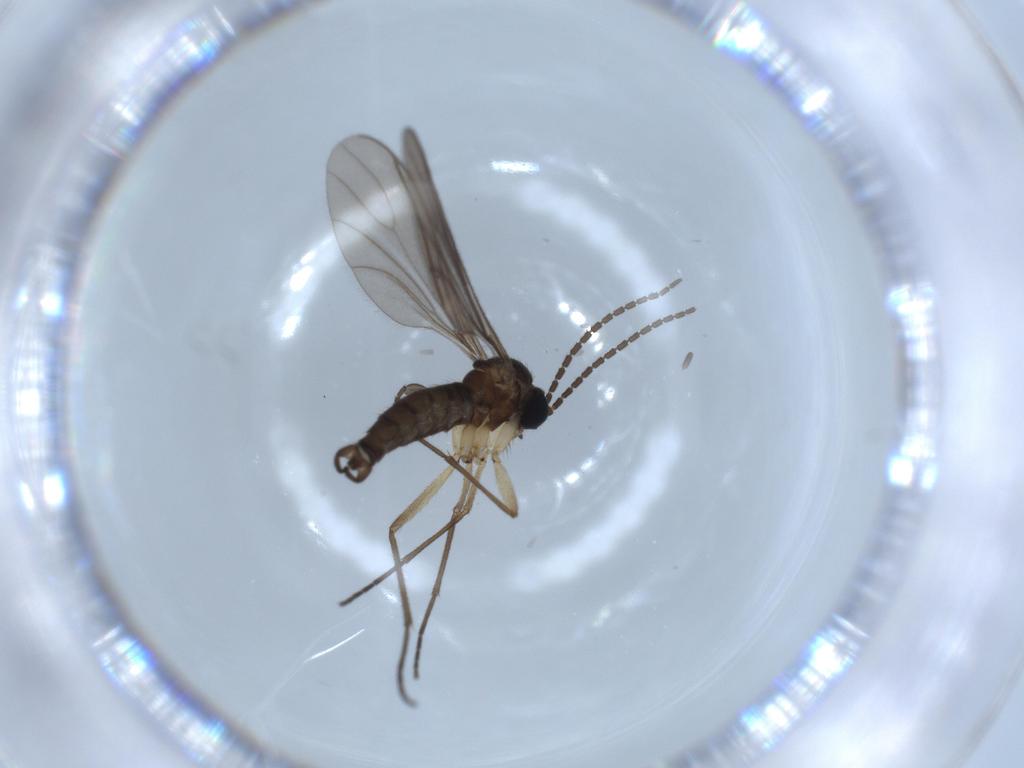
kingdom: Animalia
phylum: Arthropoda
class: Insecta
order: Diptera
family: Sciaridae
